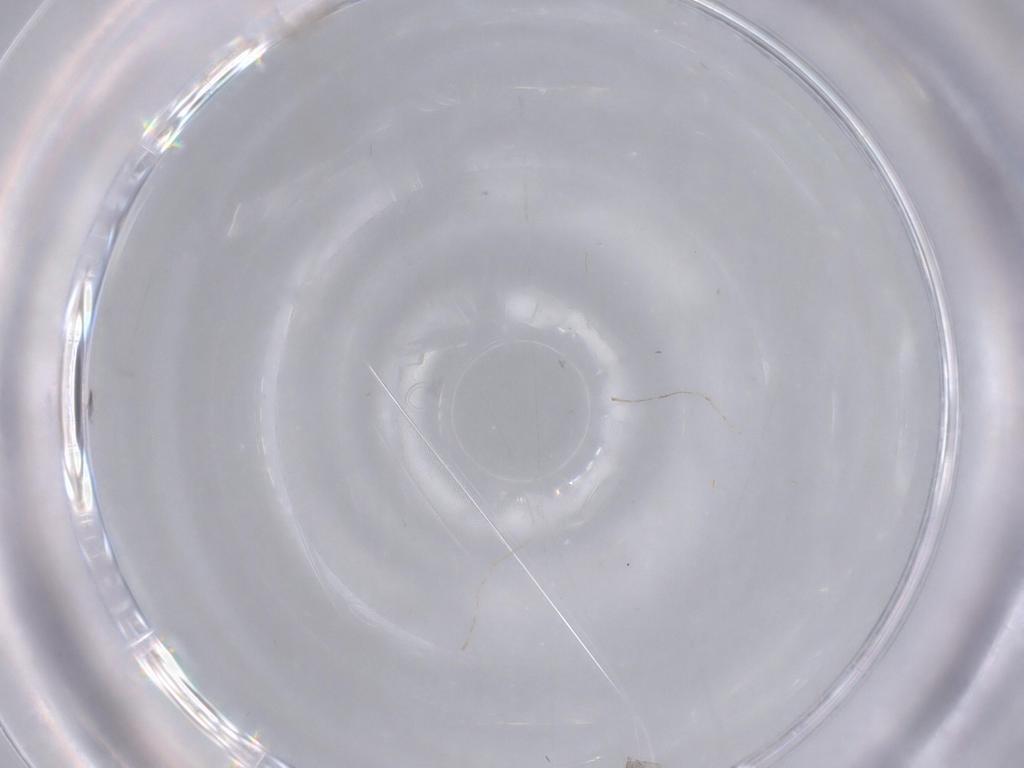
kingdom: Animalia
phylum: Arthropoda
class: Insecta
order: Diptera
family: Cecidomyiidae
